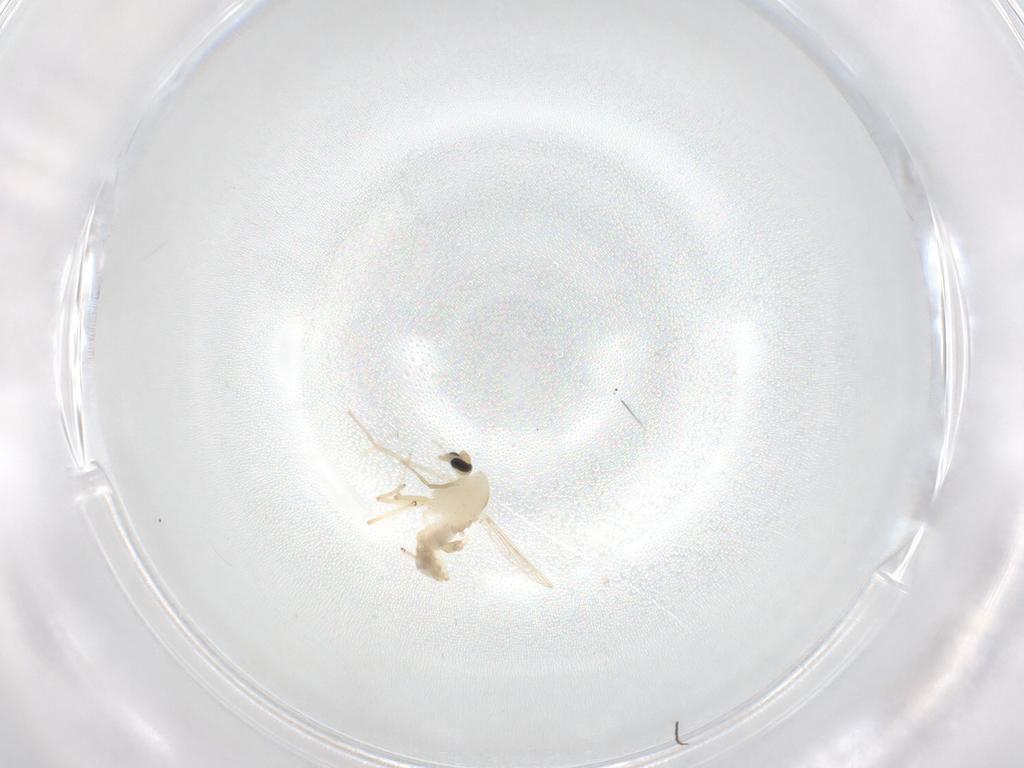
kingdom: Animalia
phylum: Arthropoda
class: Insecta
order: Diptera
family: Chironomidae
